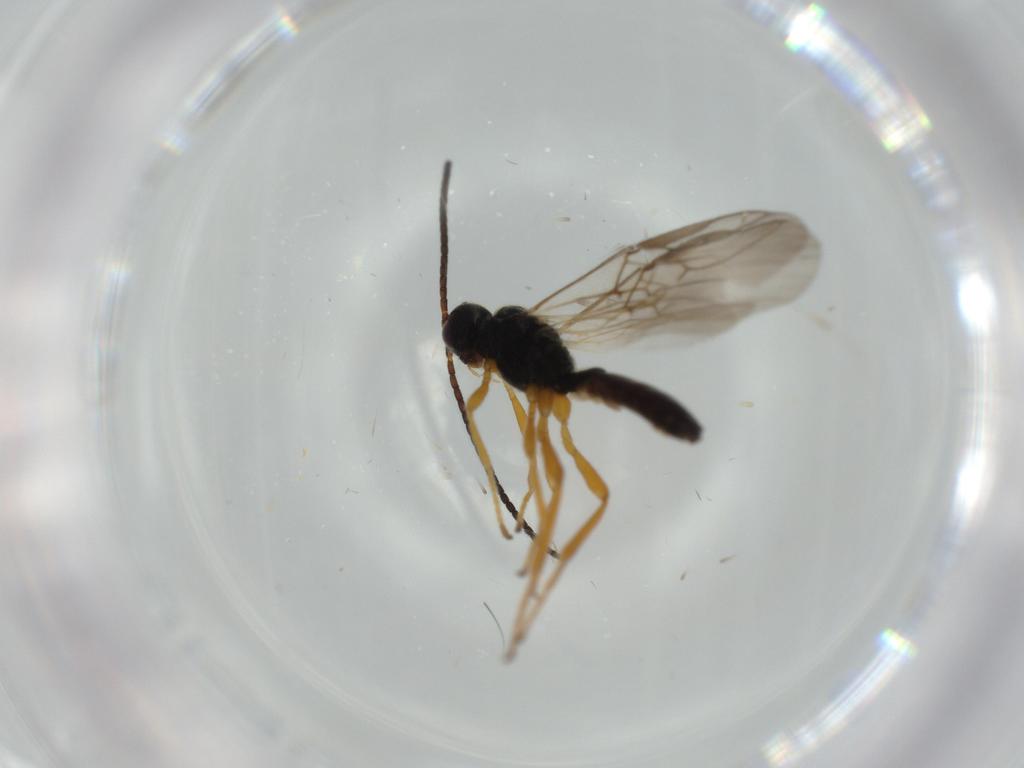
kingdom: Animalia
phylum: Arthropoda
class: Insecta
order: Hymenoptera
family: Braconidae
